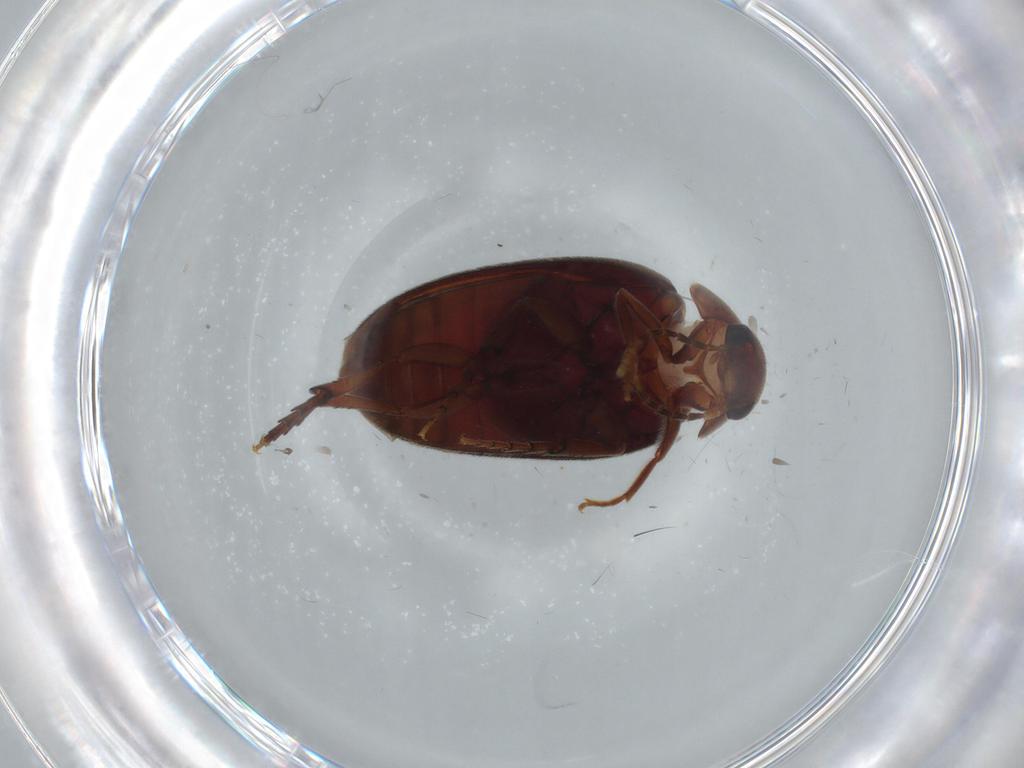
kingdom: Animalia
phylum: Arthropoda
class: Insecta
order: Coleoptera
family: Eucinetidae
